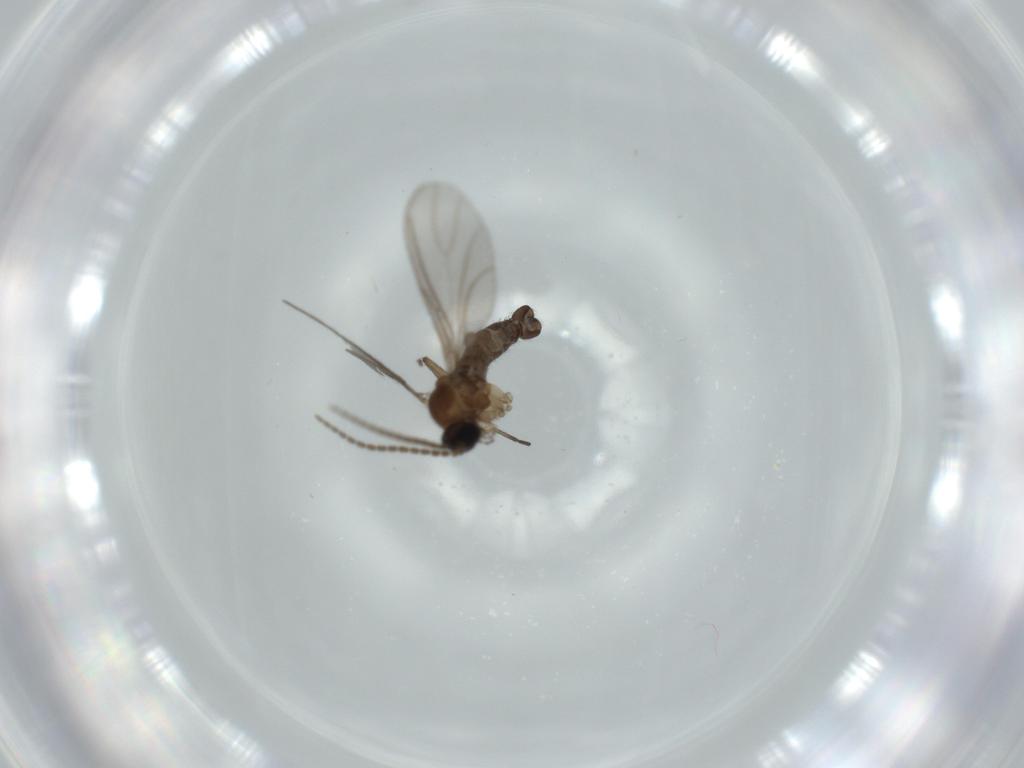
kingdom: Animalia
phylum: Arthropoda
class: Insecta
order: Diptera
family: Sciaridae
